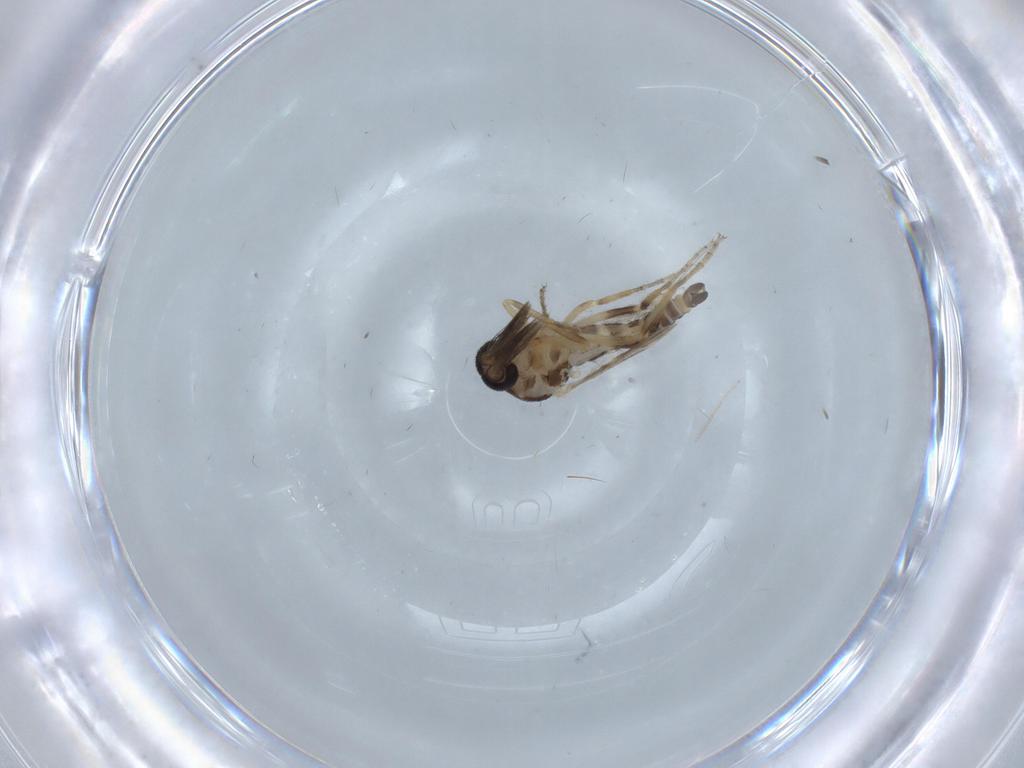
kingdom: Animalia
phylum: Arthropoda
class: Insecta
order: Diptera
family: Ceratopogonidae
